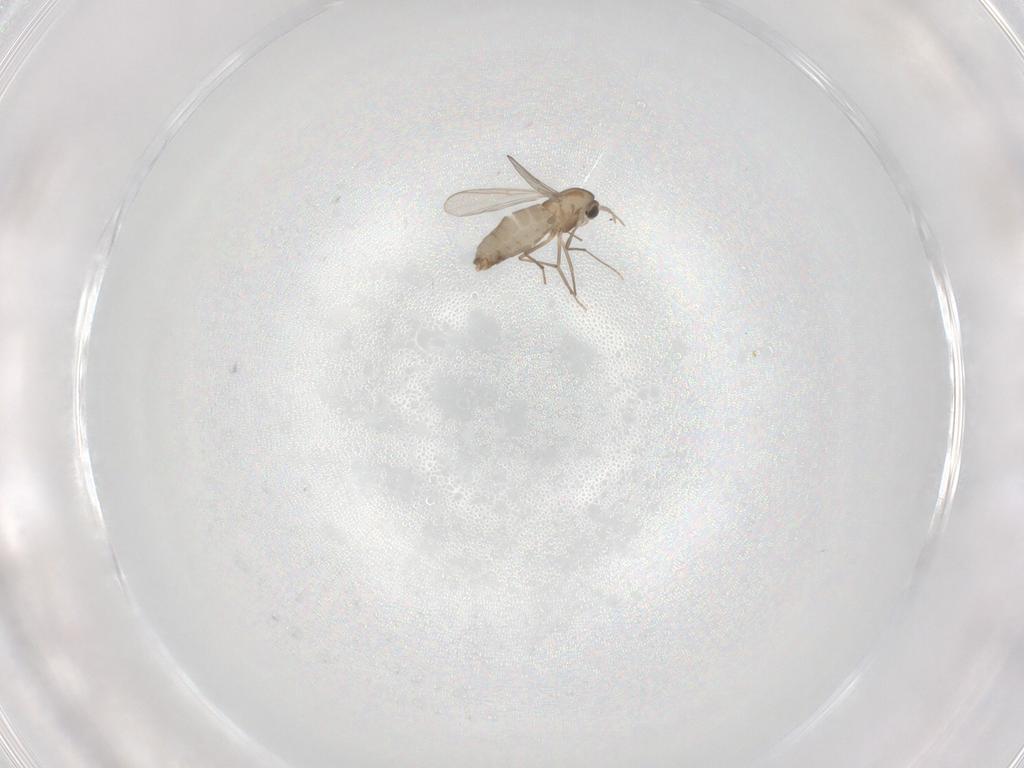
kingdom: Animalia
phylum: Arthropoda
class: Insecta
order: Diptera
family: Chironomidae
